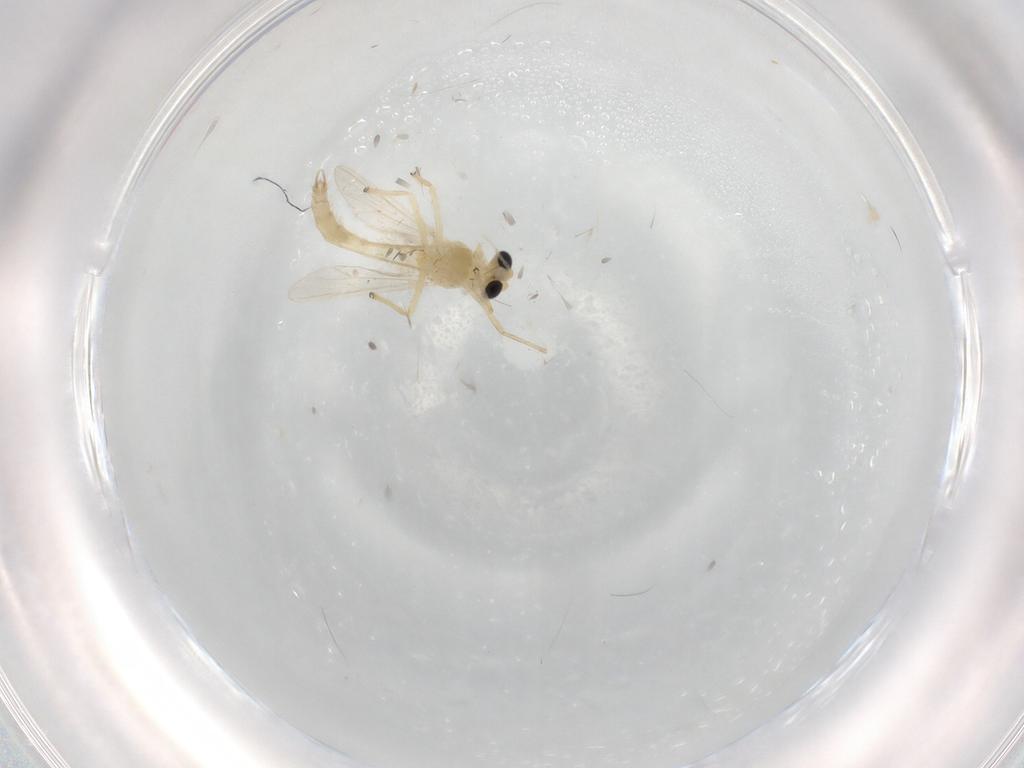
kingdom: Animalia
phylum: Arthropoda
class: Insecta
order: Diptera
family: Chironomidae
